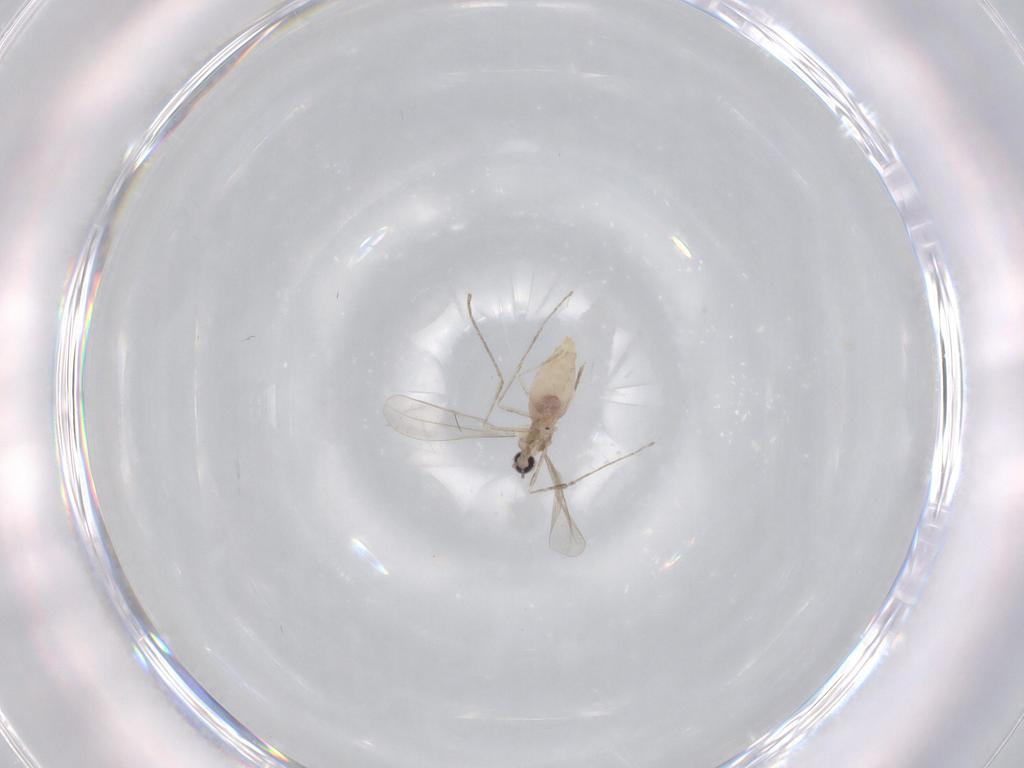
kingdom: Animalia
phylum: Arthropoda
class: Insecta
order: Diptera
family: Cecidomyiidae
